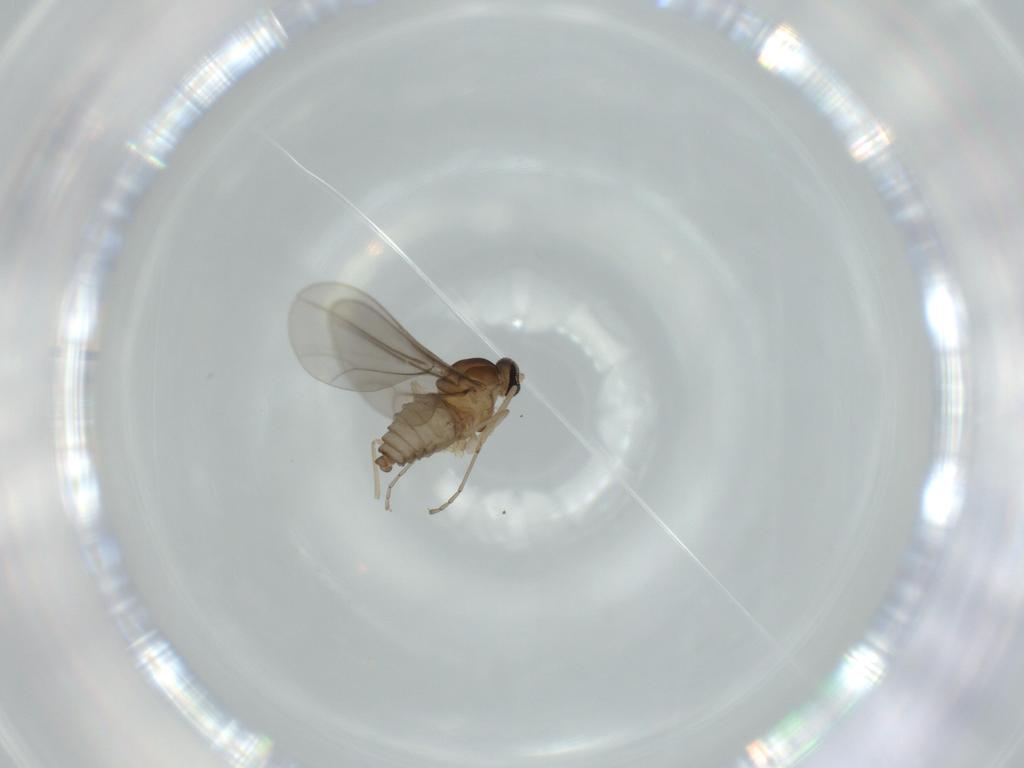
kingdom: Animalia
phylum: Arthropoda
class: Insecta
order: Diptera
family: Cecidomyiidae
